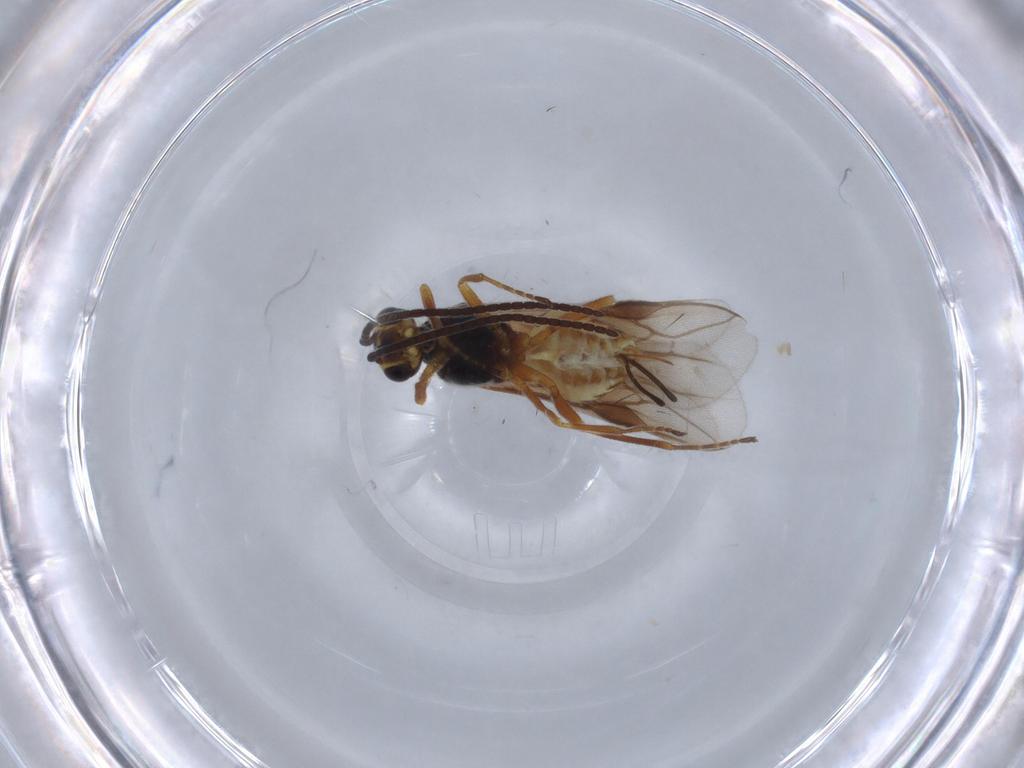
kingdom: Animalia
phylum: Arthropoda
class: Insecta
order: Hymenoptera
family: Braconidae
